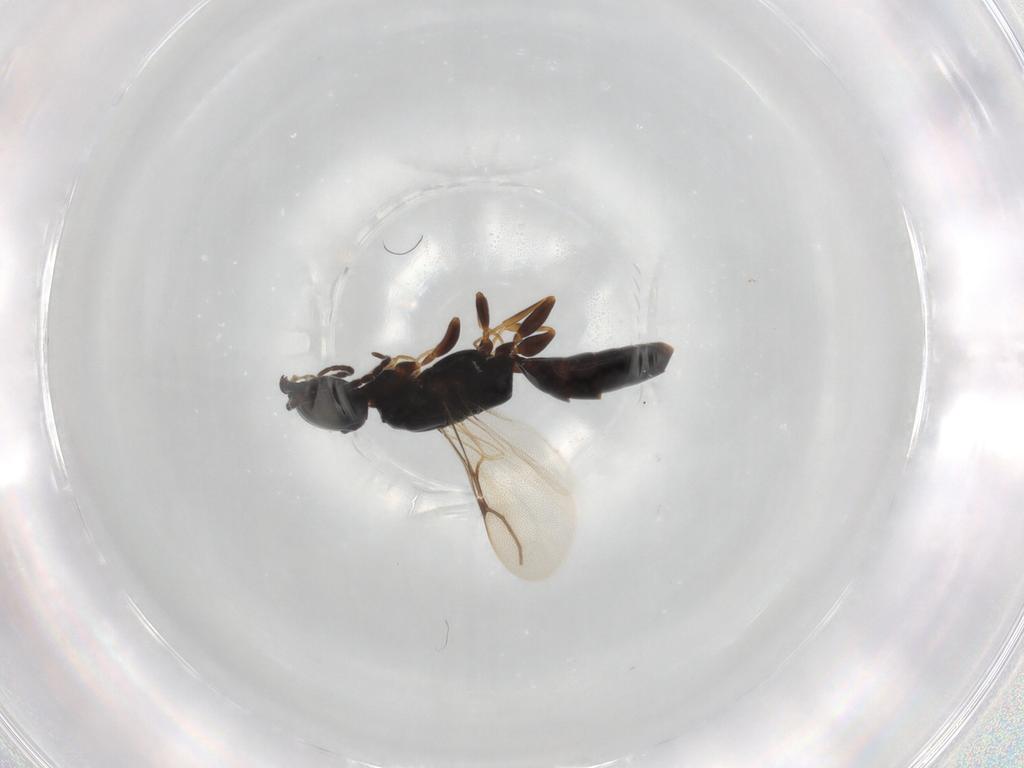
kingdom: Animalia
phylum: Arthropoda
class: Insecta
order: Hymenoptera
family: Bethylidae
